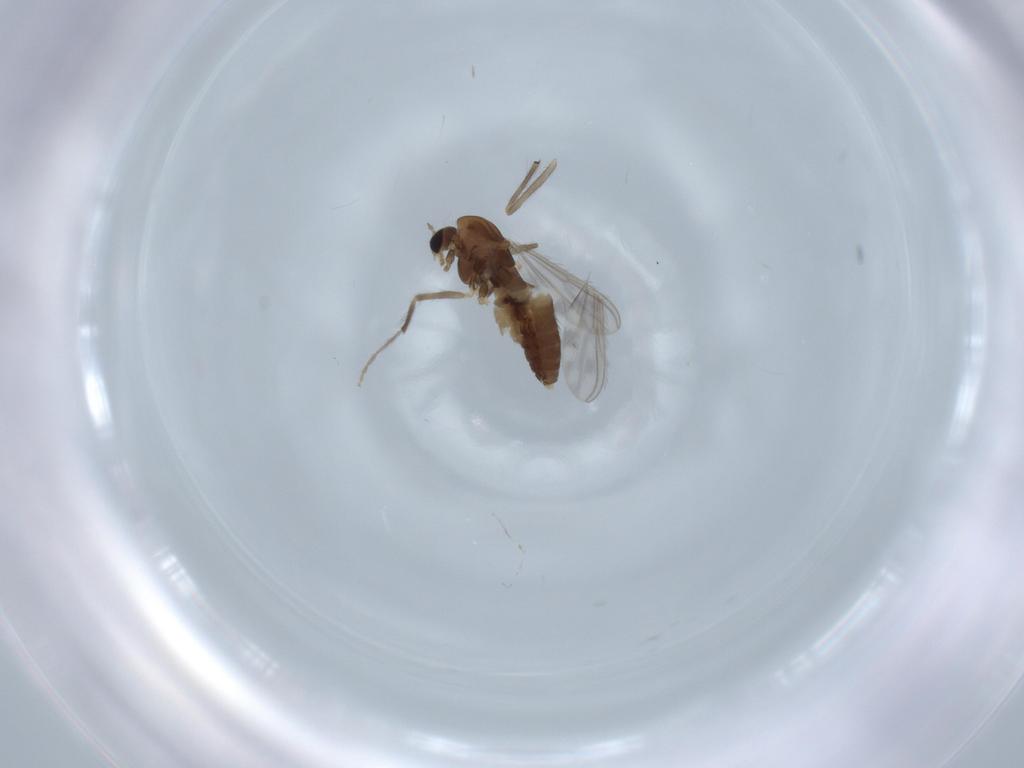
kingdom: Animalia
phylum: Arthropoda
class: Insecta
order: Diptera
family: Chironomidae
